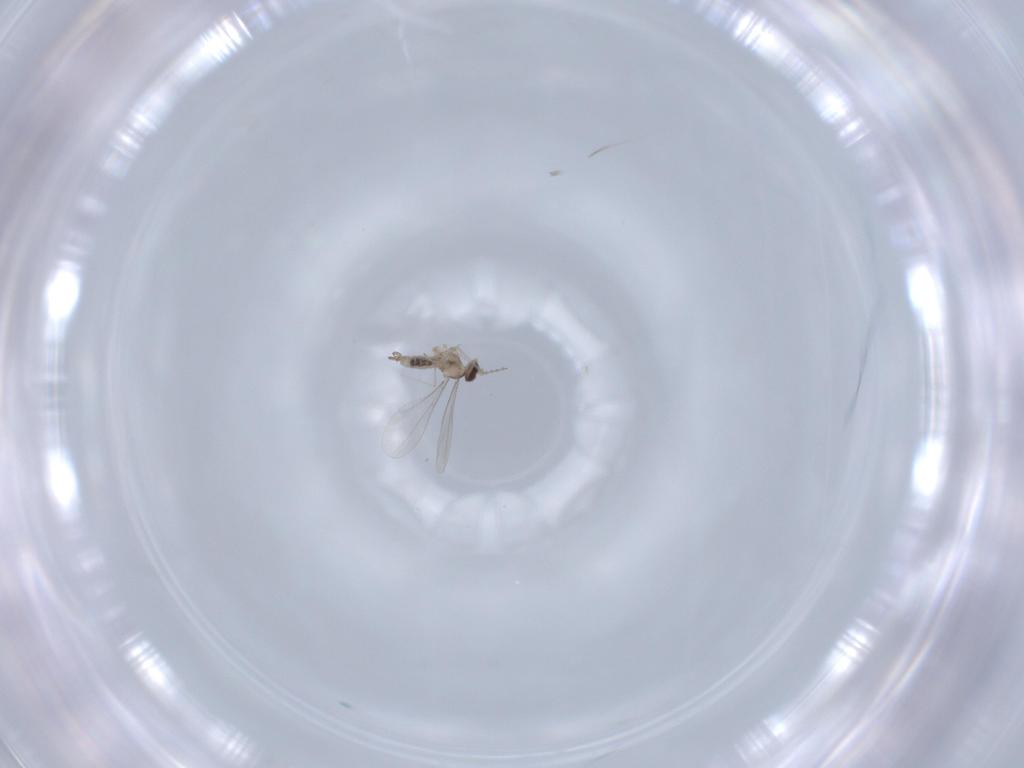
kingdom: Animalia
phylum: Arthropoda
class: Insecta
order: Diptera
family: Cecidomyiidae
